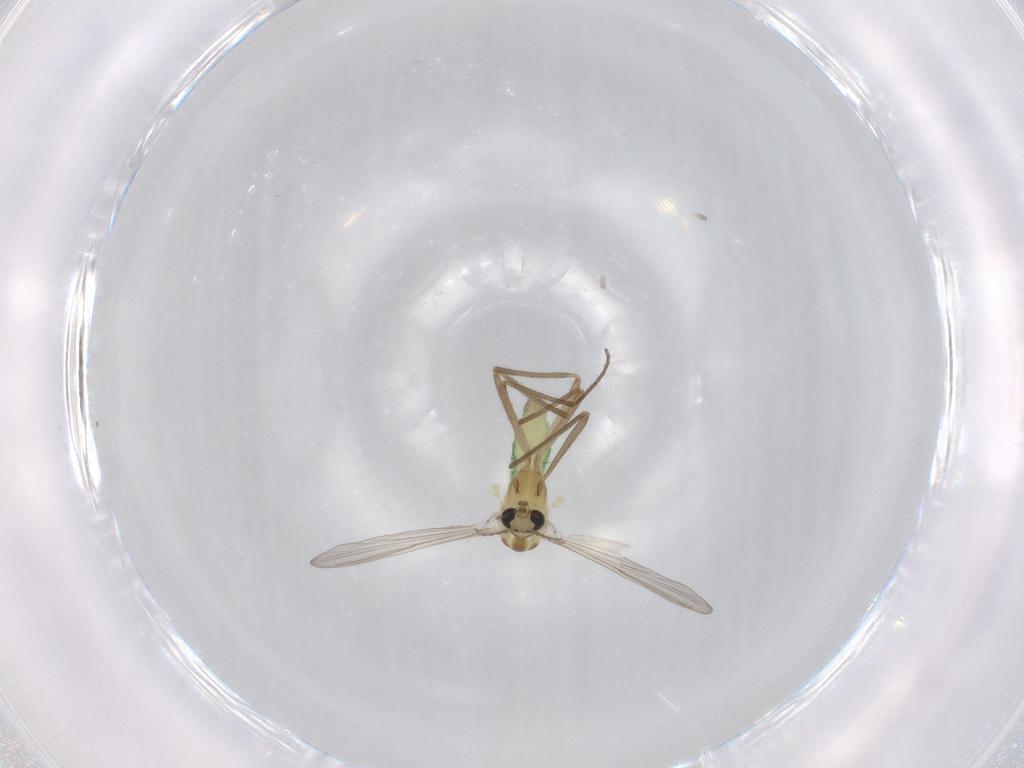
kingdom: Animalia
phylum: Arthropoda
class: Insecta
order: Diptera
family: Chironomidae
